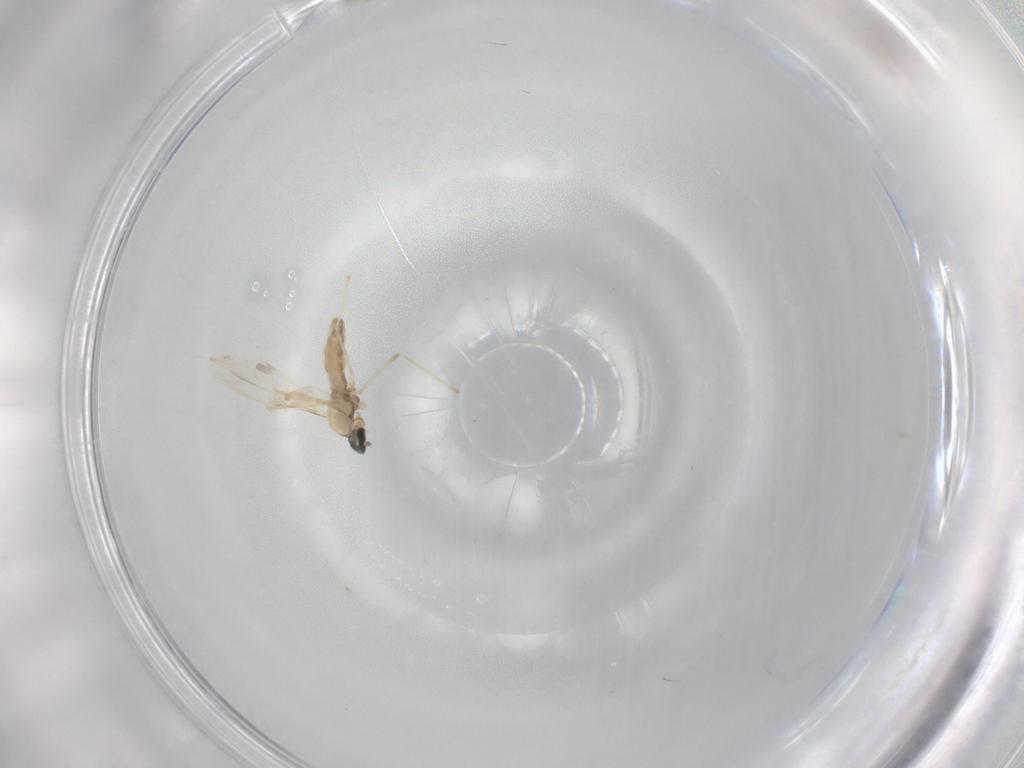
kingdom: Animalia
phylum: Arthropoda
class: Insecta
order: Diptera
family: Cecidomyiidae
